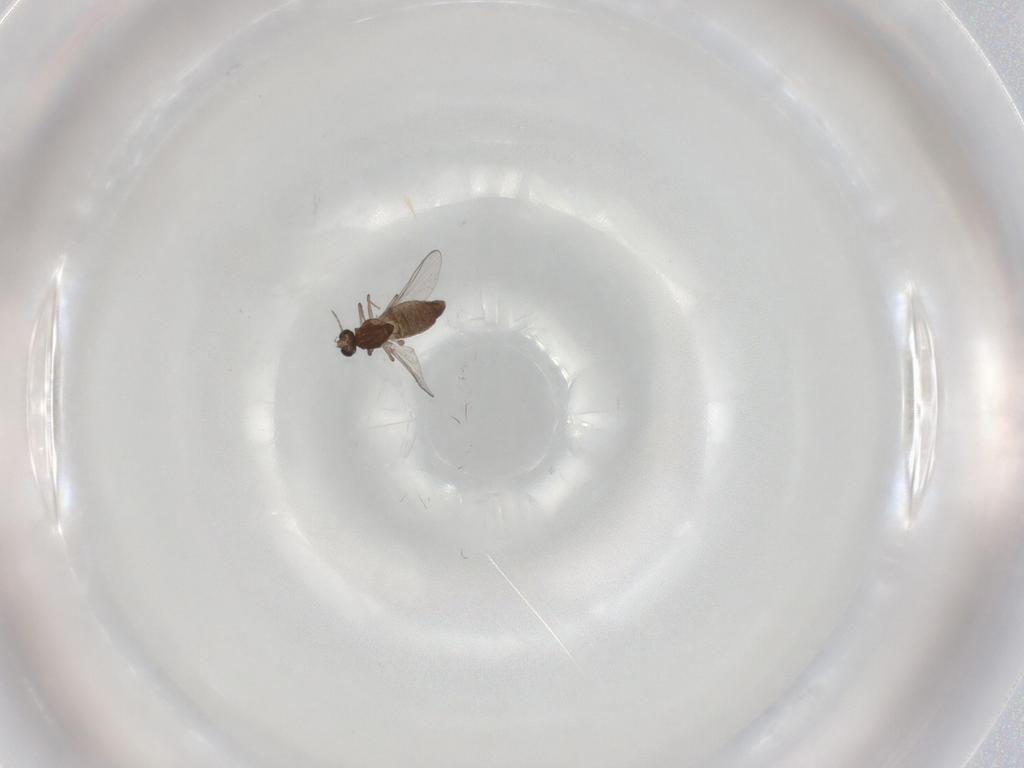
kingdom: Animalia
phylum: Arthropoda
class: Insecta
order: Diptera
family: Chironomidae
